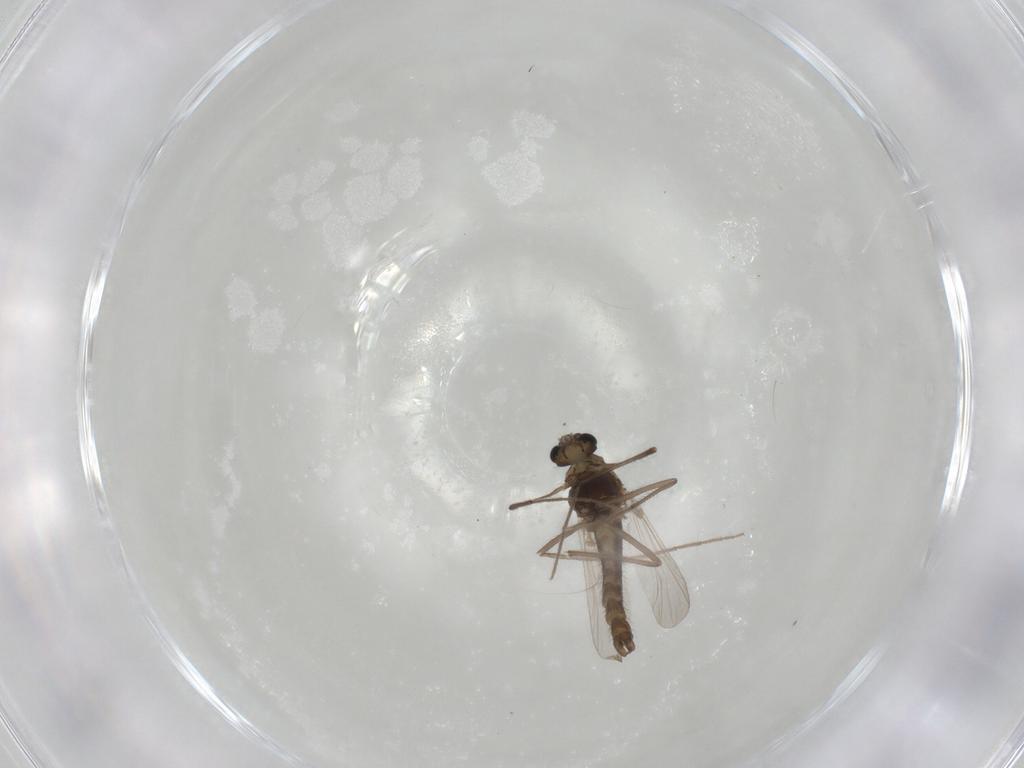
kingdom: Animalia
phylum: Arthropoda
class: Insecta
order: Diptera
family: Chironomidae
